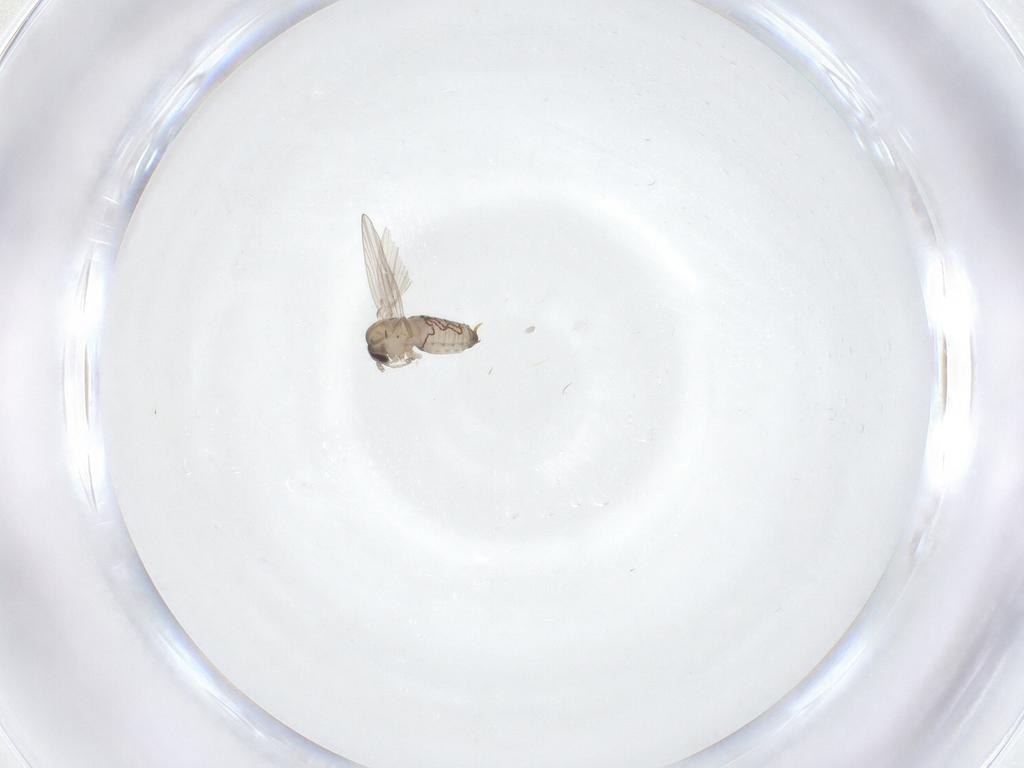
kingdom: Animalia
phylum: Arthropoda
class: Insecta
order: Diptera
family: Psychodidae
